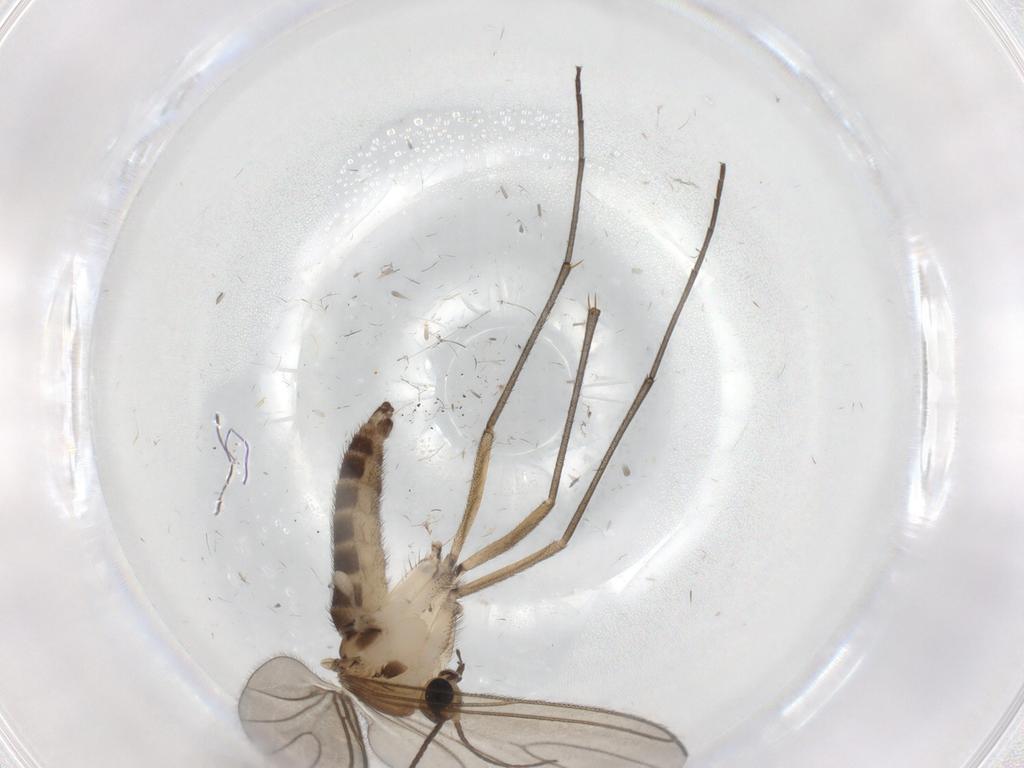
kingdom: Animalia
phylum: Arthropoda
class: Insecta
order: Diptera
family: Sciaridae
